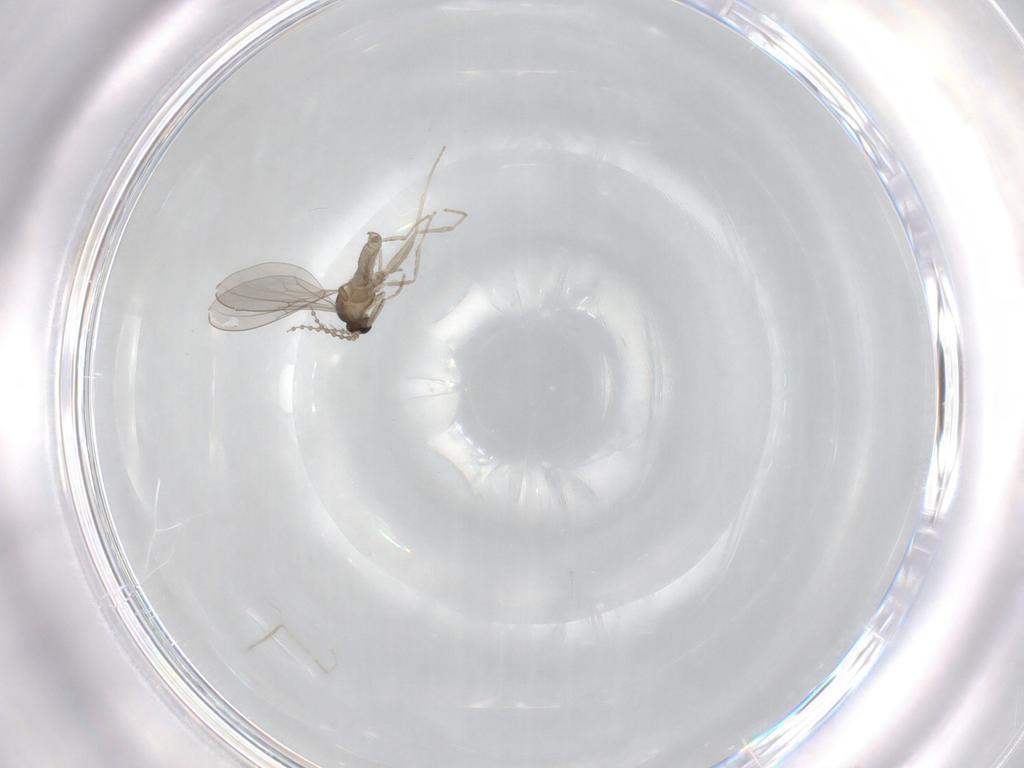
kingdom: Animalia
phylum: Arthropoda
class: Insecta
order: Diptera
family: Cecidomyiidae
